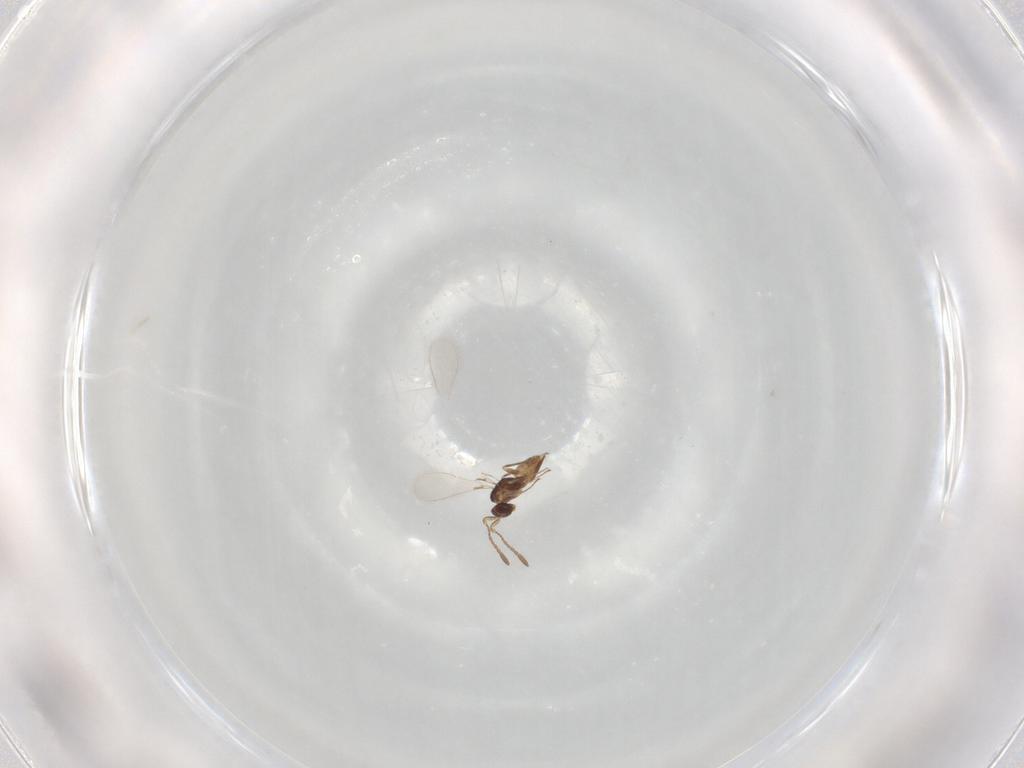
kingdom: Animalia
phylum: Arthropoda
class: Insecta
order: Hymenoptera
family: Mymaridae
